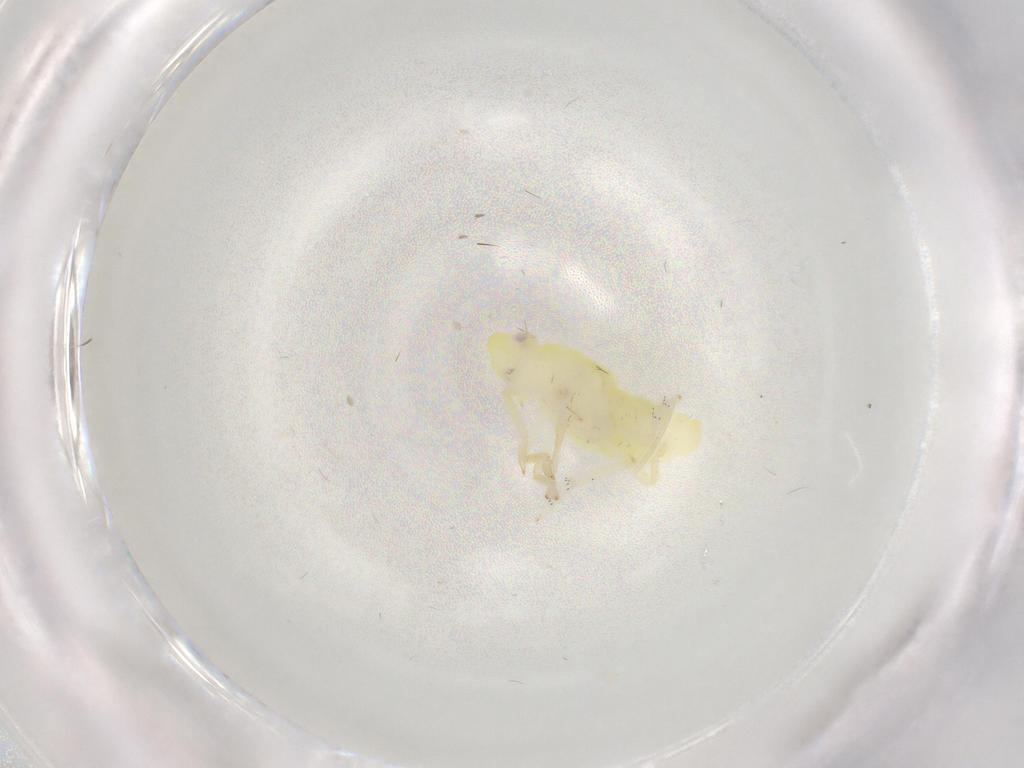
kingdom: Animalia
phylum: Arthropoda
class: Insecta
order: Hemiptera
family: Tropiduchidae
